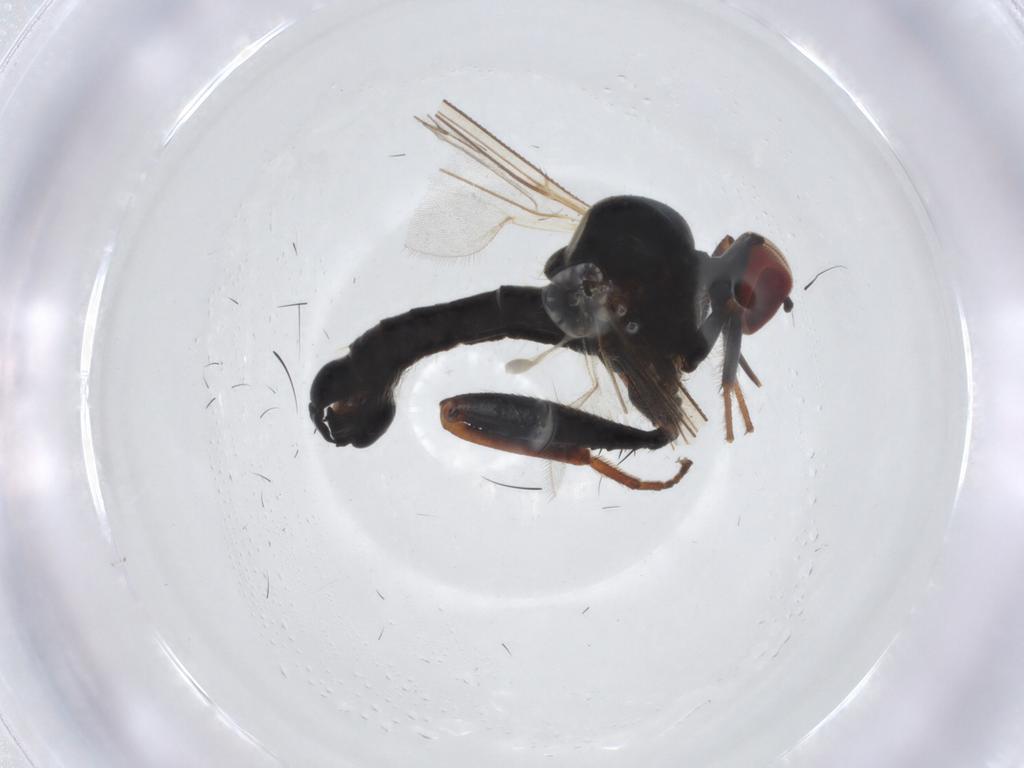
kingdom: Animalia
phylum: Arthropoda
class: Insecta
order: Diptera
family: Hybotidae
